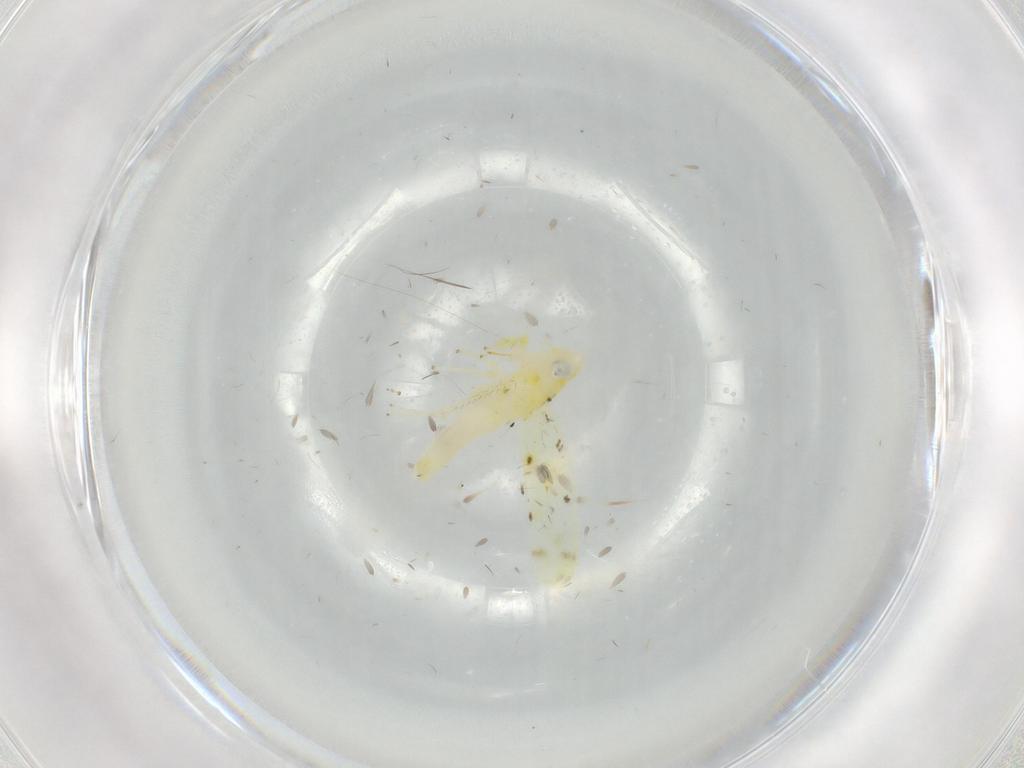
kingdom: Animalia
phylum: Arthropoda
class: Insecta
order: Hemiptera
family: Cicadellidae
